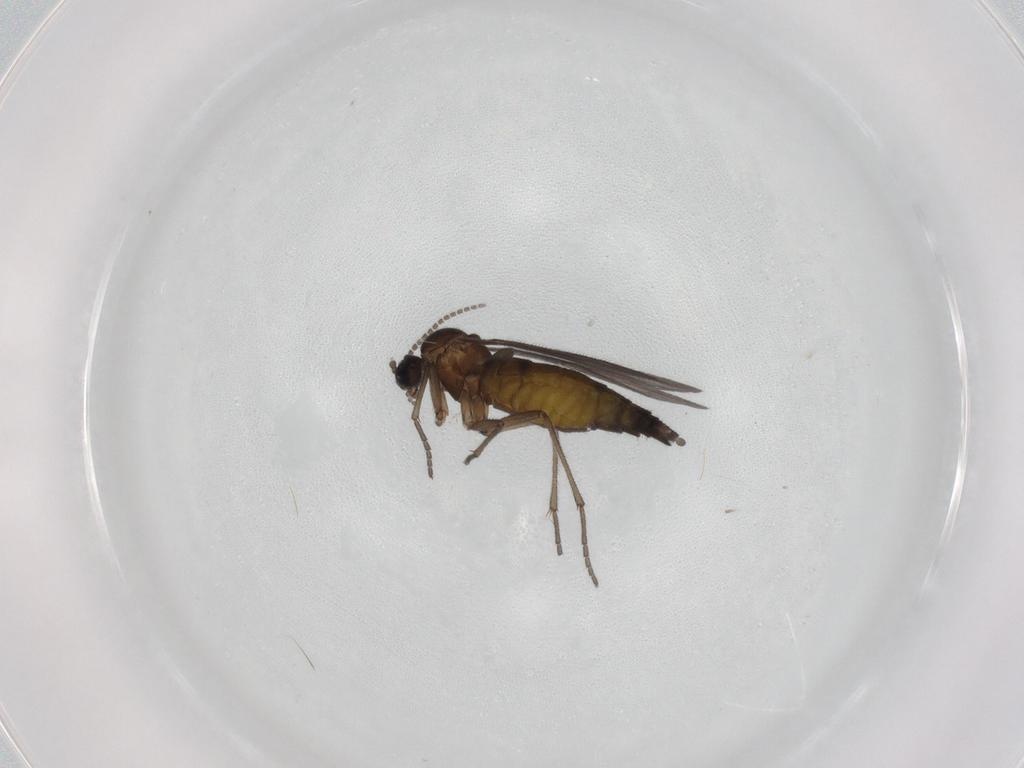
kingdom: Animalia
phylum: Arthropoda
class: Insecta
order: Diptera
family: Sciaridae
